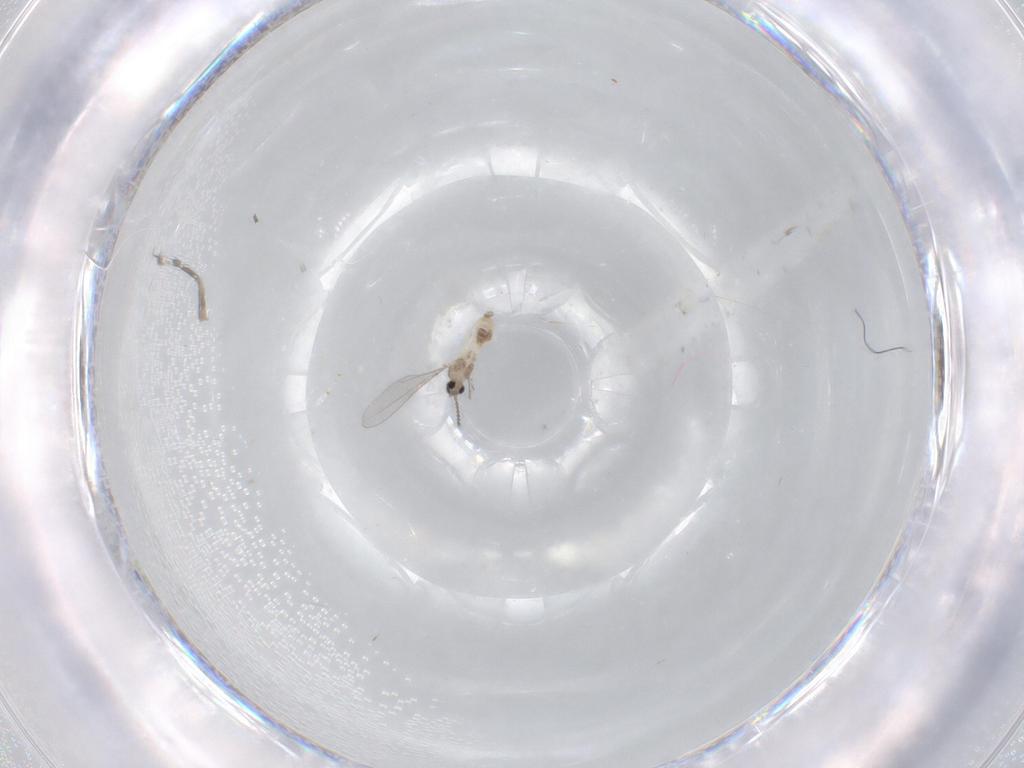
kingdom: Animalia
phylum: Arthropoda
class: Insecta
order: Diptera
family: Cecidomyiidae
